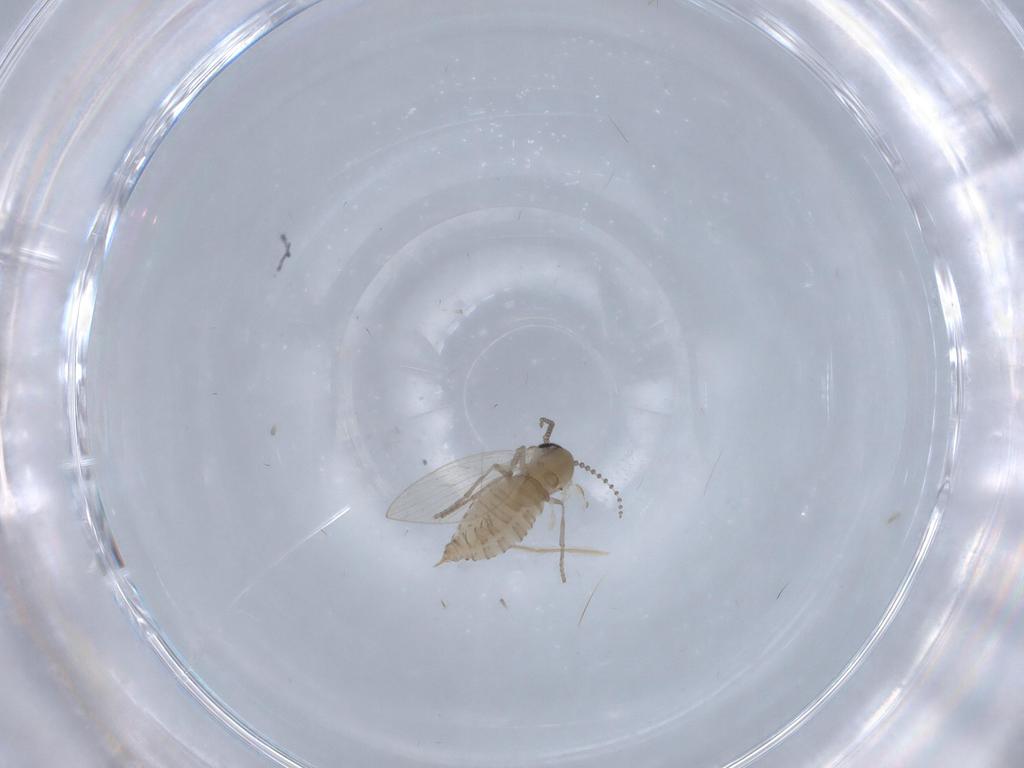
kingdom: Animalia
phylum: Arthropoda
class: Insecta
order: Diptera
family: Psychodidae
